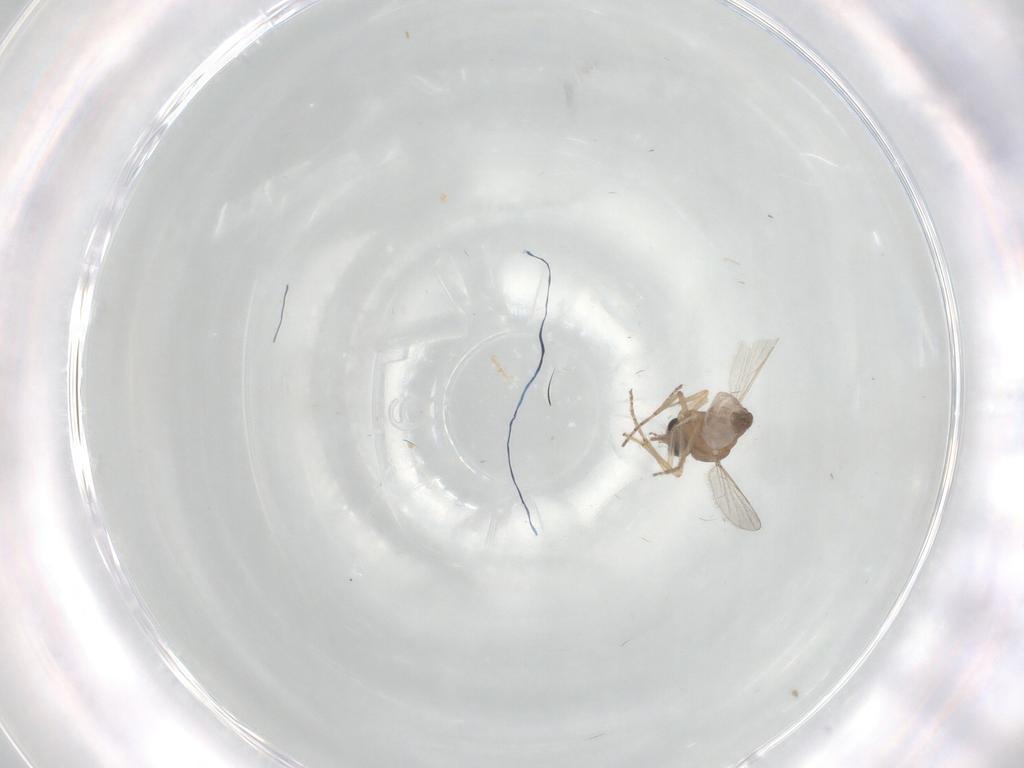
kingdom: Animalia
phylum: Arthropoda
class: Insecta
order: Diptera
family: Ceratopogonidae
